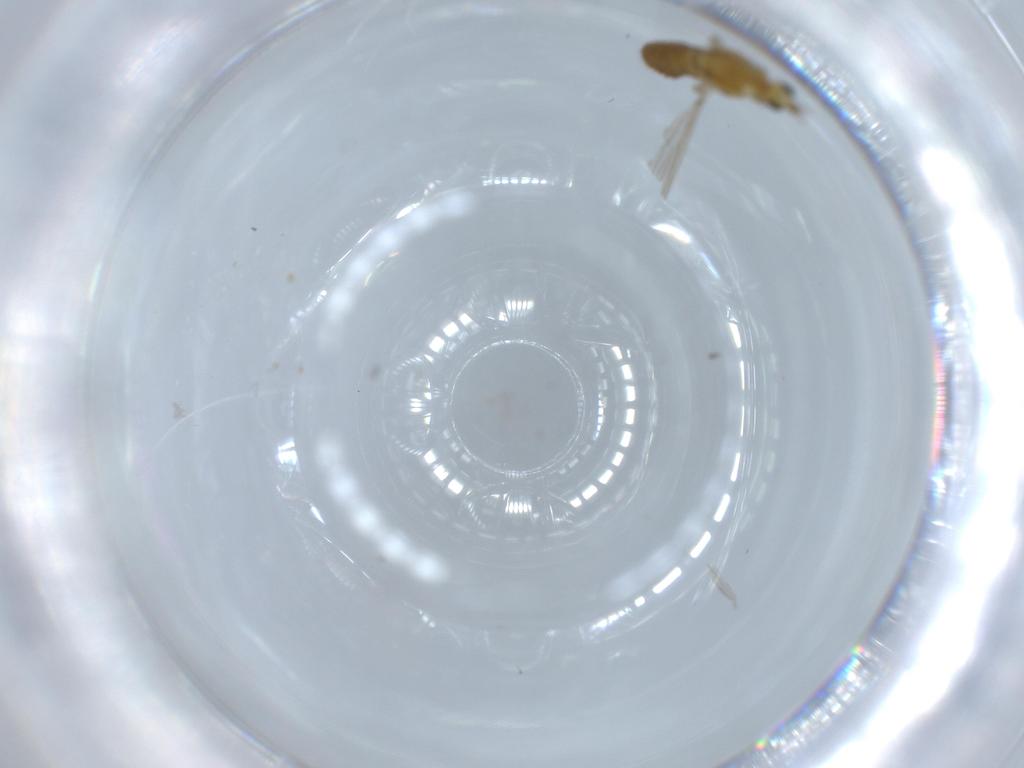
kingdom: Animalia
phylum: Arthropoda
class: Insecta
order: Diptera
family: Chironomidae
